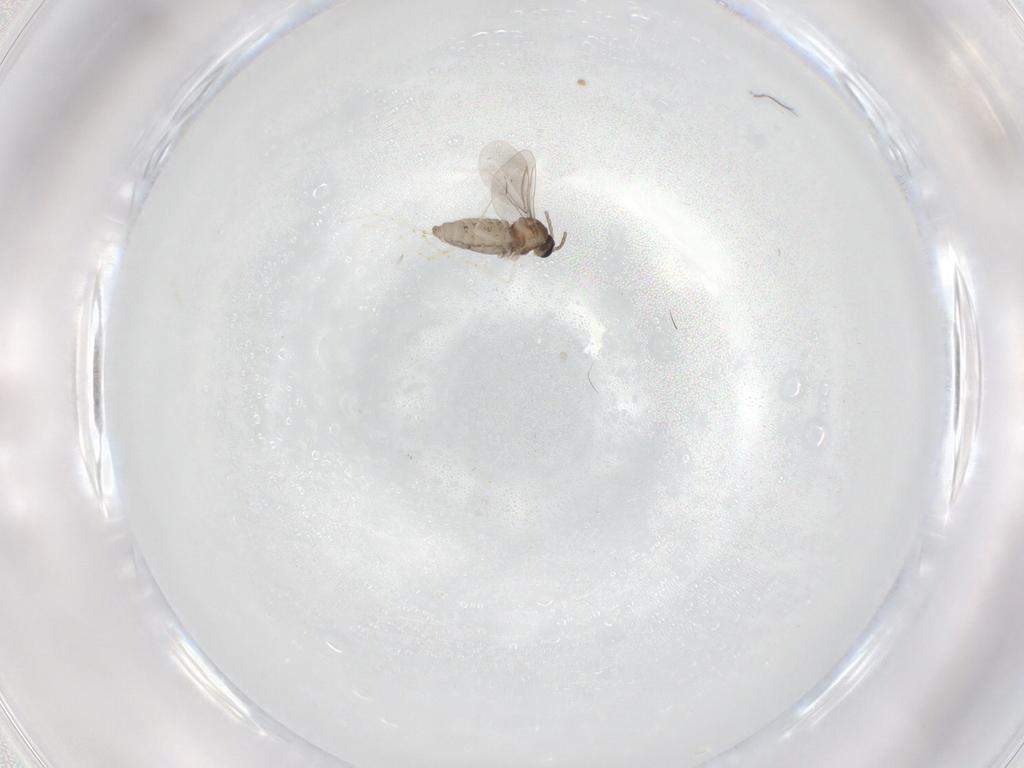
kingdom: Animalia
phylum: Arthropoda
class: Insecta
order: Diptera
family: Cecidomyiidae
